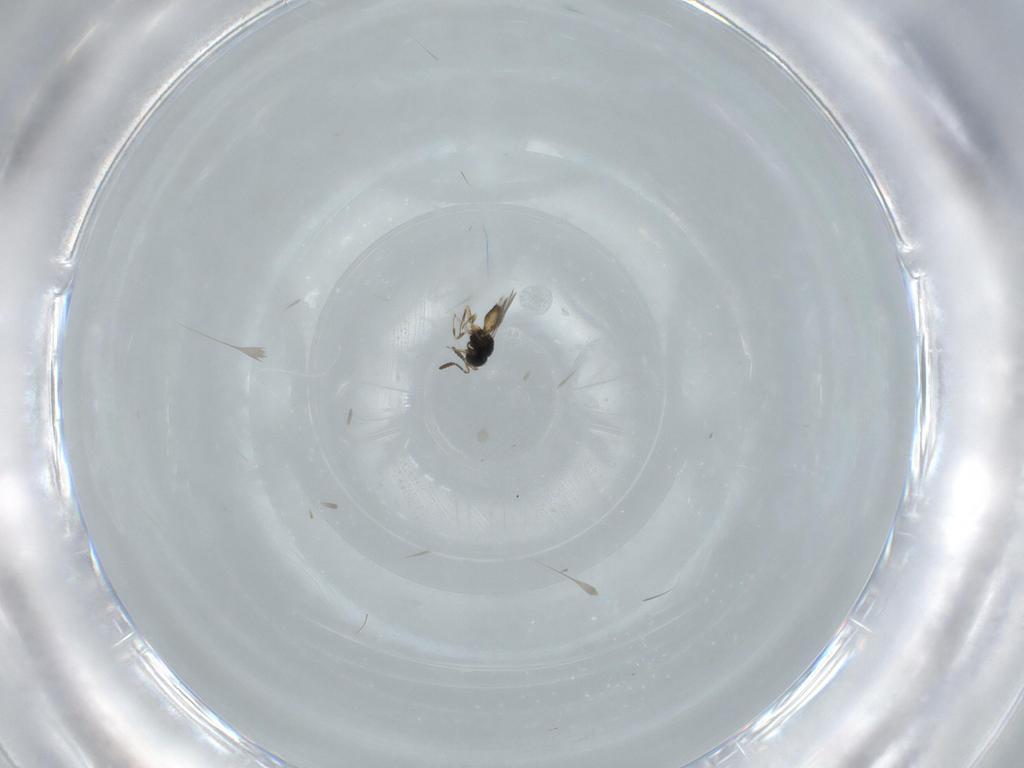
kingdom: Animalia
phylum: Arthropoda
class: Insecta
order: Hymenoptera
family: Scelionidae
